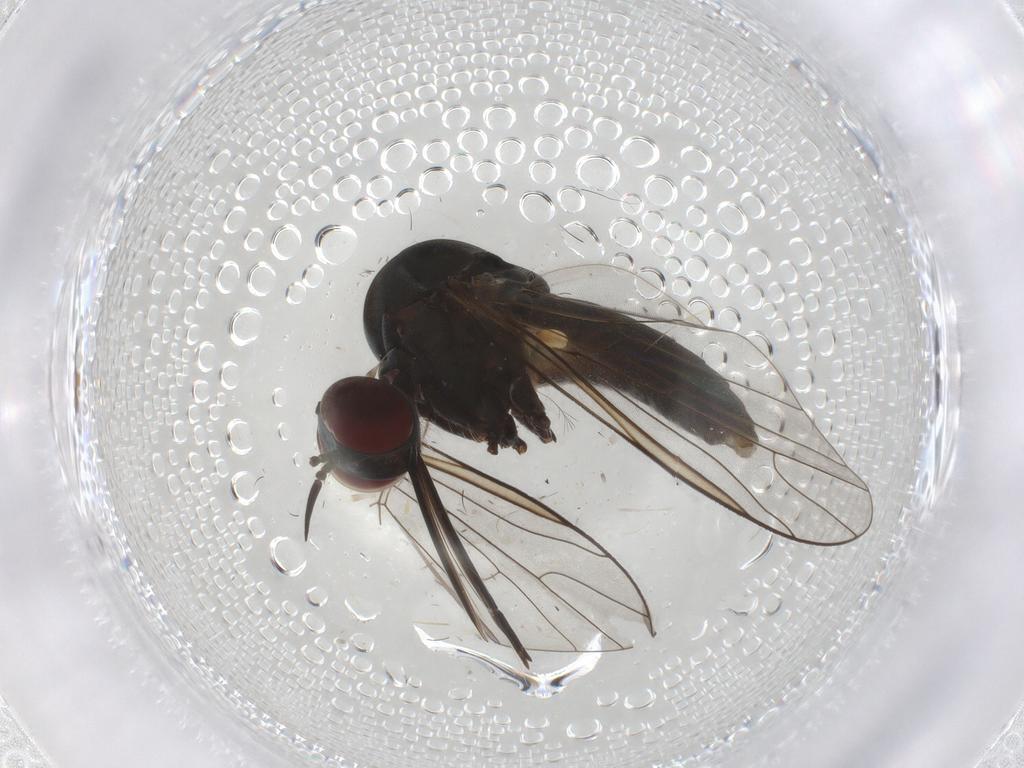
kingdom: Animalia
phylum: Arthropoda
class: Insecta
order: Diptera
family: Bombyliidae
